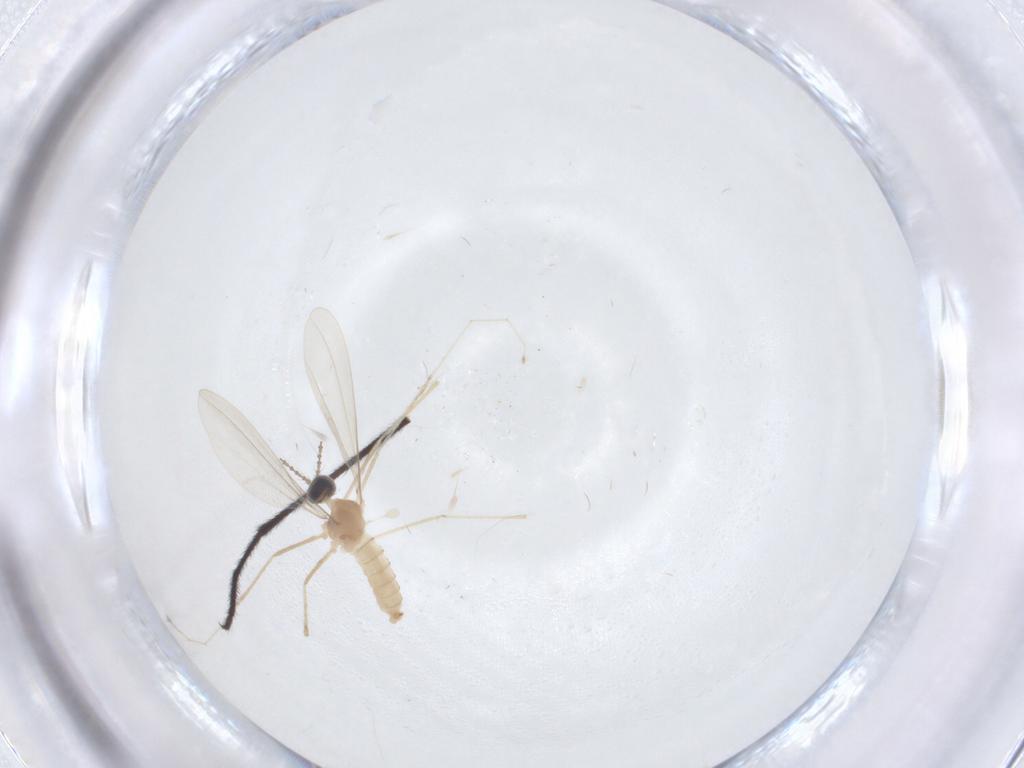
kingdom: Animalia
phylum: Arthropoda
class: Insecta
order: Diptera
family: Cecidomyiidae
